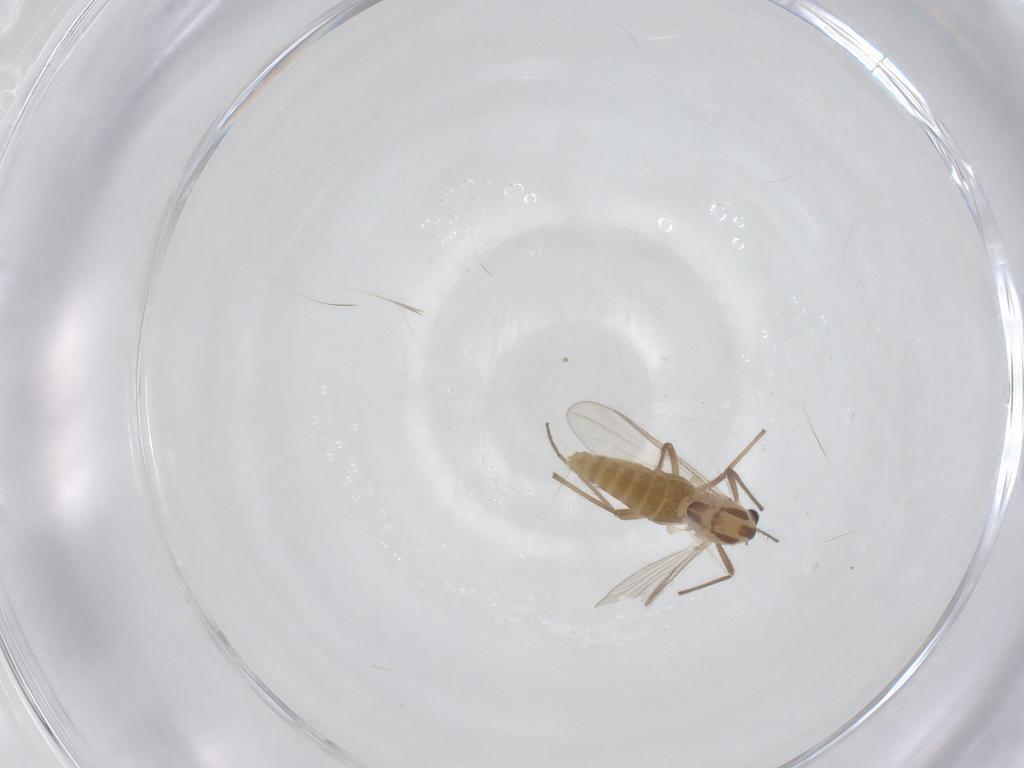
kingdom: Animalia
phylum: Arthropoda
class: Insecta
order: Diptera
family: Chironomidae
